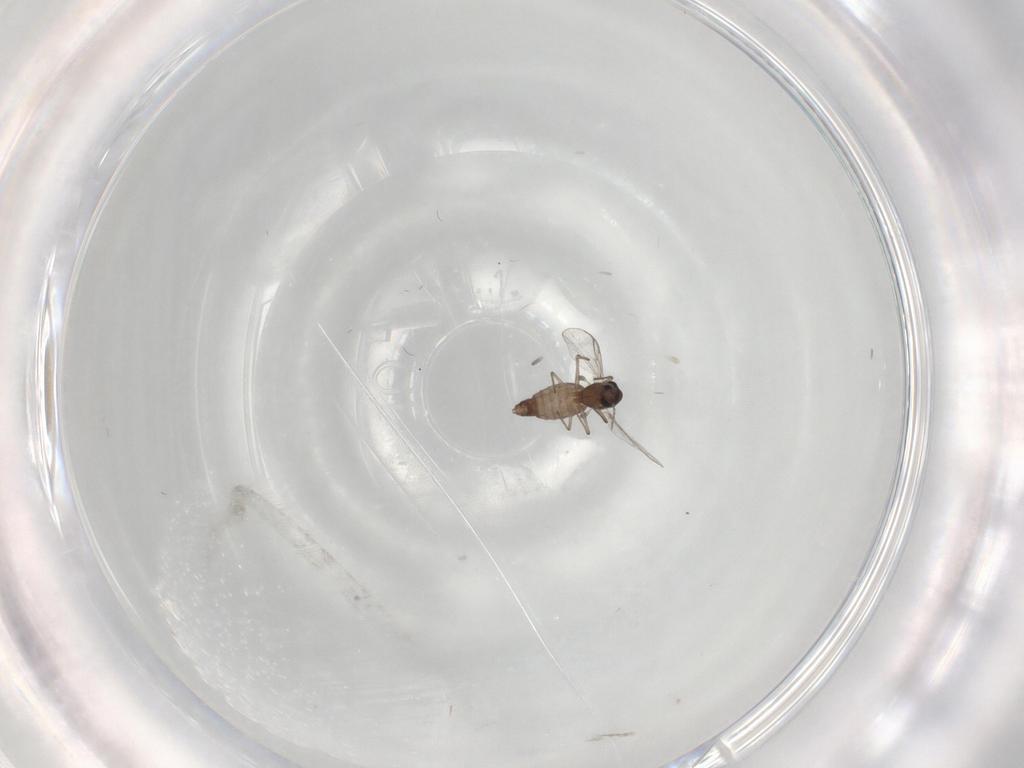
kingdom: Animalia
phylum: Arthropoda
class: Insecta
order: Diptera
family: Chironomidae
